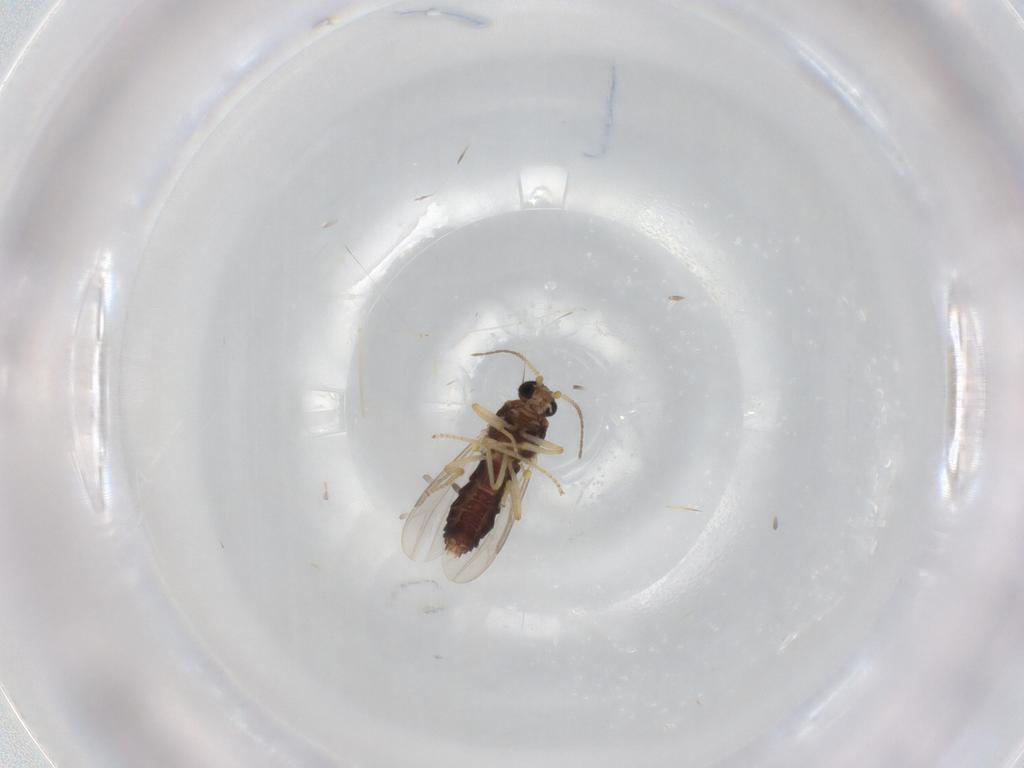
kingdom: Animalia
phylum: Arthropoda
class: Insecta
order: Diptera
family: Ceratopogonidae
